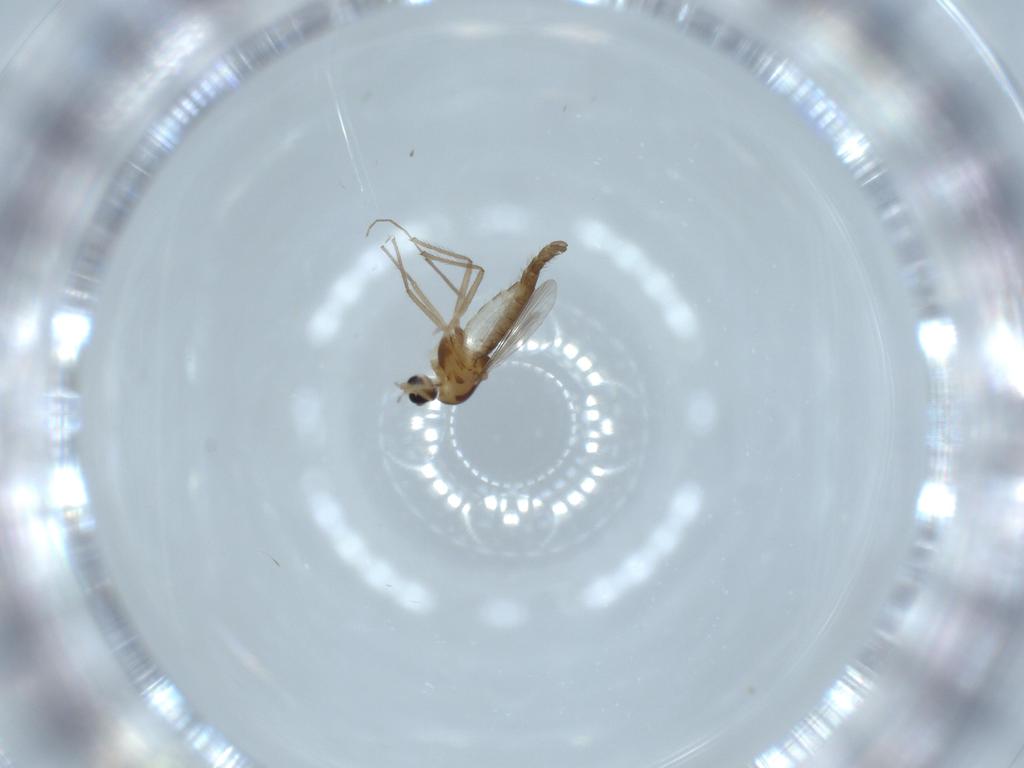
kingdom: Animalia
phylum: Arthropoda
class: Insecta
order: Diptera
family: Chironomidae
